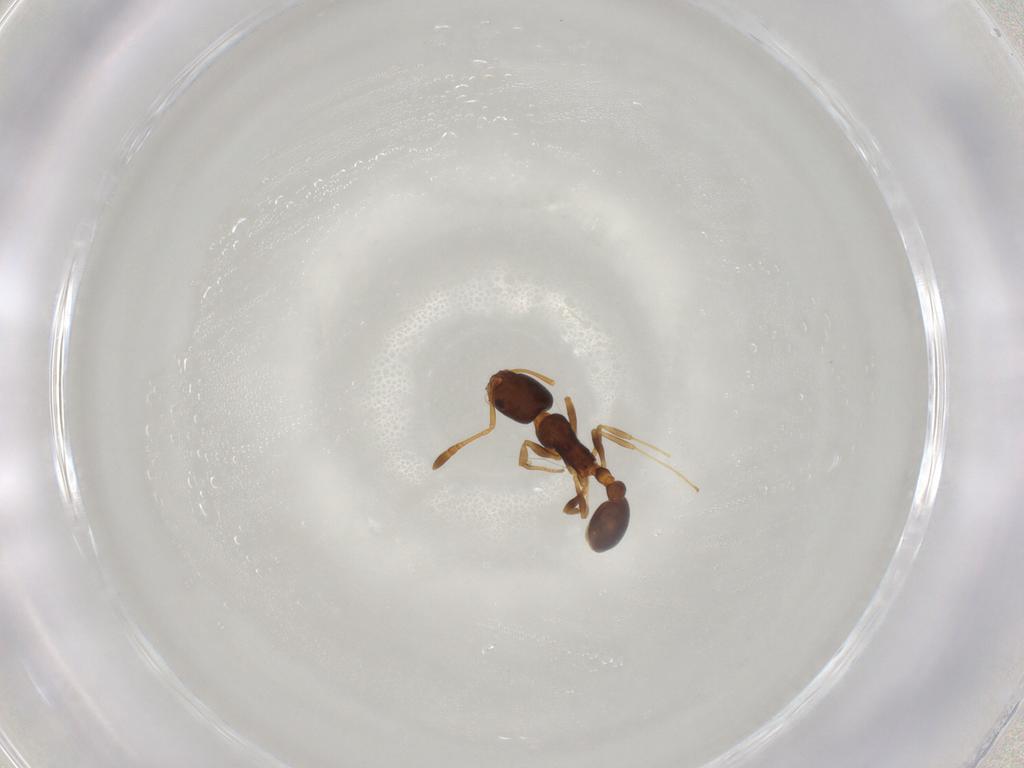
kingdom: Animalia
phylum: Arthropoda
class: Insecta
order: Hymenoptera
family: Formicidae
